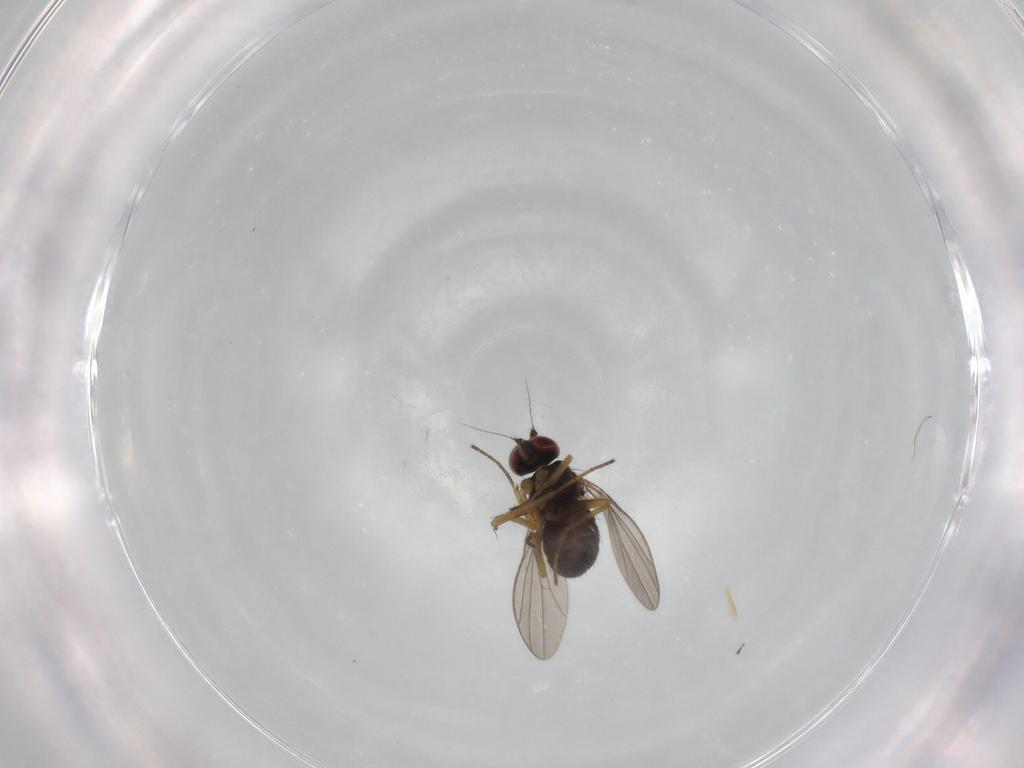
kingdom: Animalia
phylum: Arthropoda
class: Insecta
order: Diptera
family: Dolichopodidae
